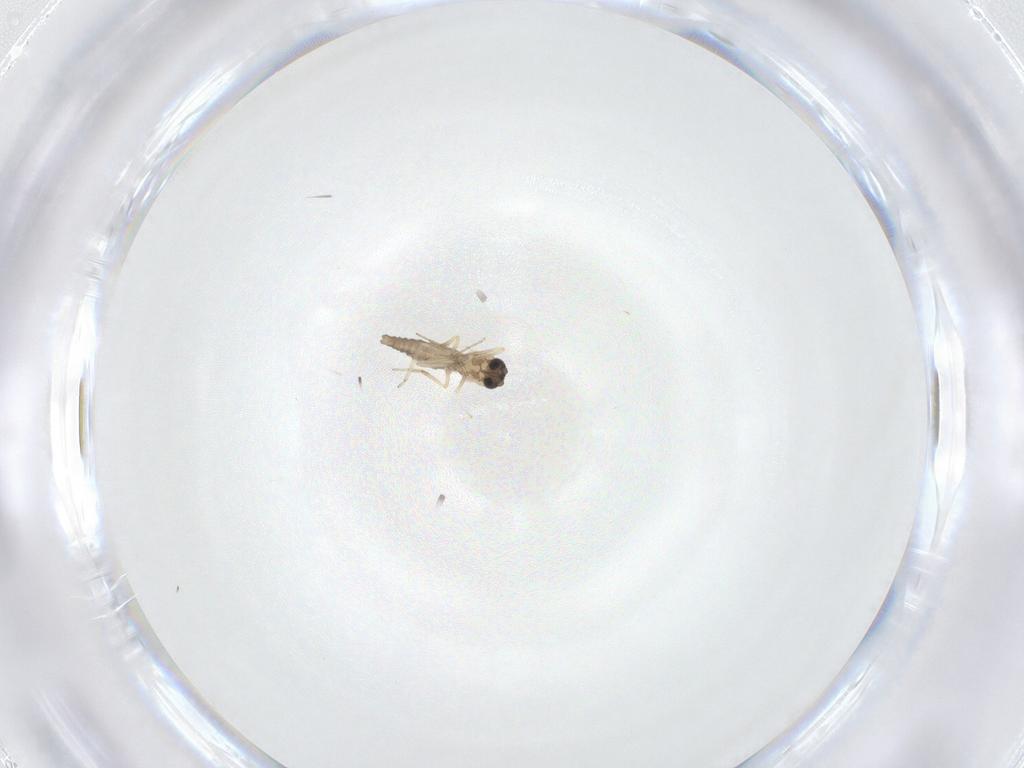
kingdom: Animalia
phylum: Arthropoda
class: Insecta
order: Diptera
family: Ceratopogonidae
